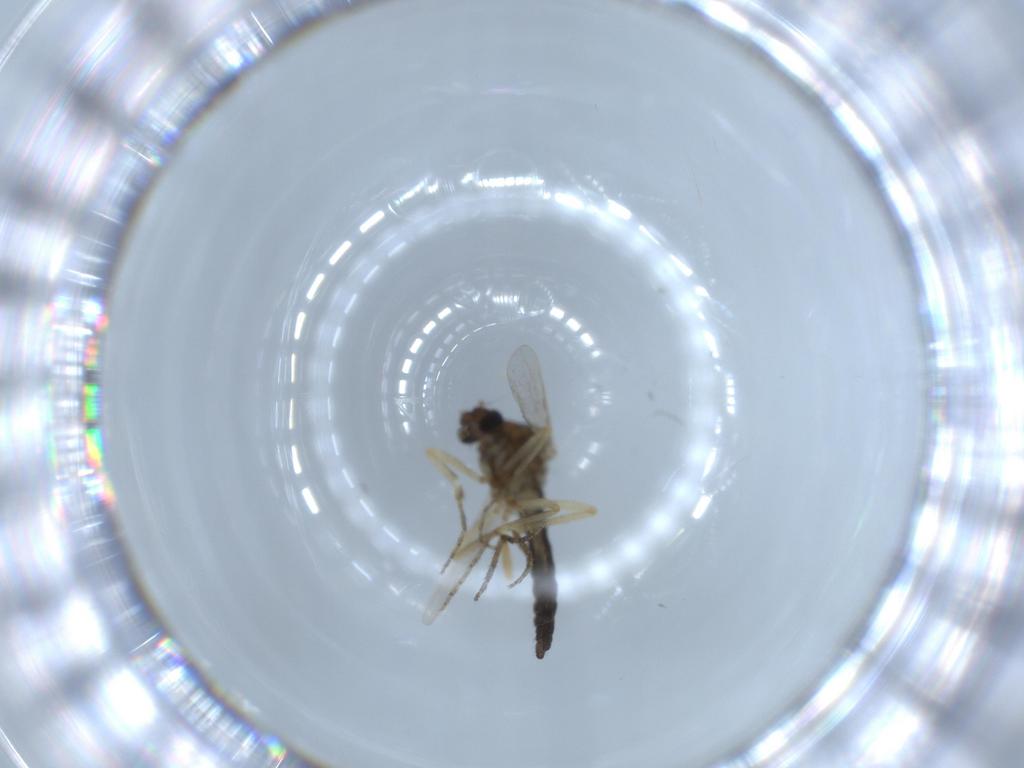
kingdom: Animalia
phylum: Arthropoda
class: Insecta
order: Diptera
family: Ceratopogonidae
